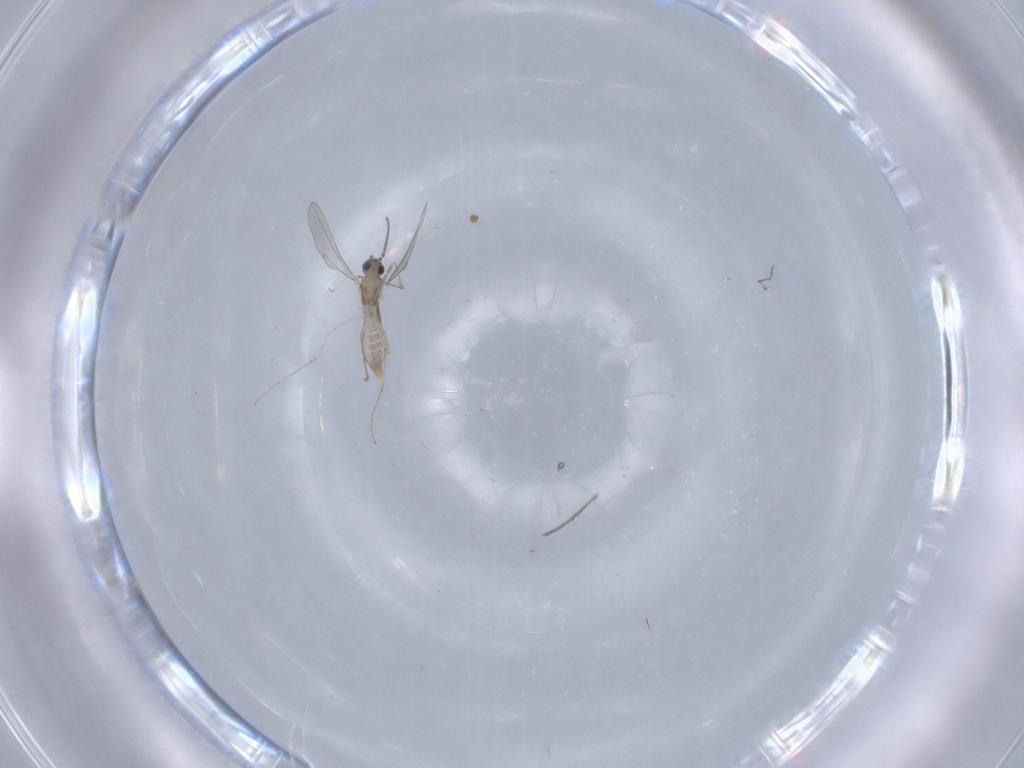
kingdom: Animalia
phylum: Arthropoda
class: Insecta
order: Diptera
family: Cecidomyiidae
